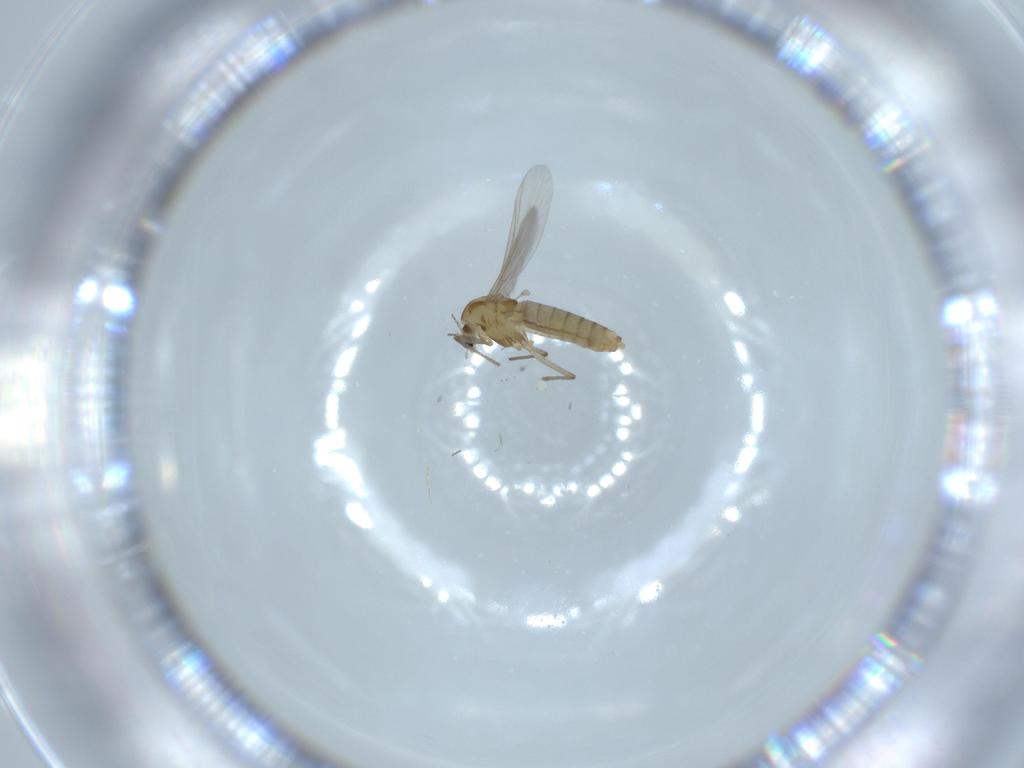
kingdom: Animalia
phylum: Arthropoda
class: Insecta
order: Diptera
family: Chironomidae
